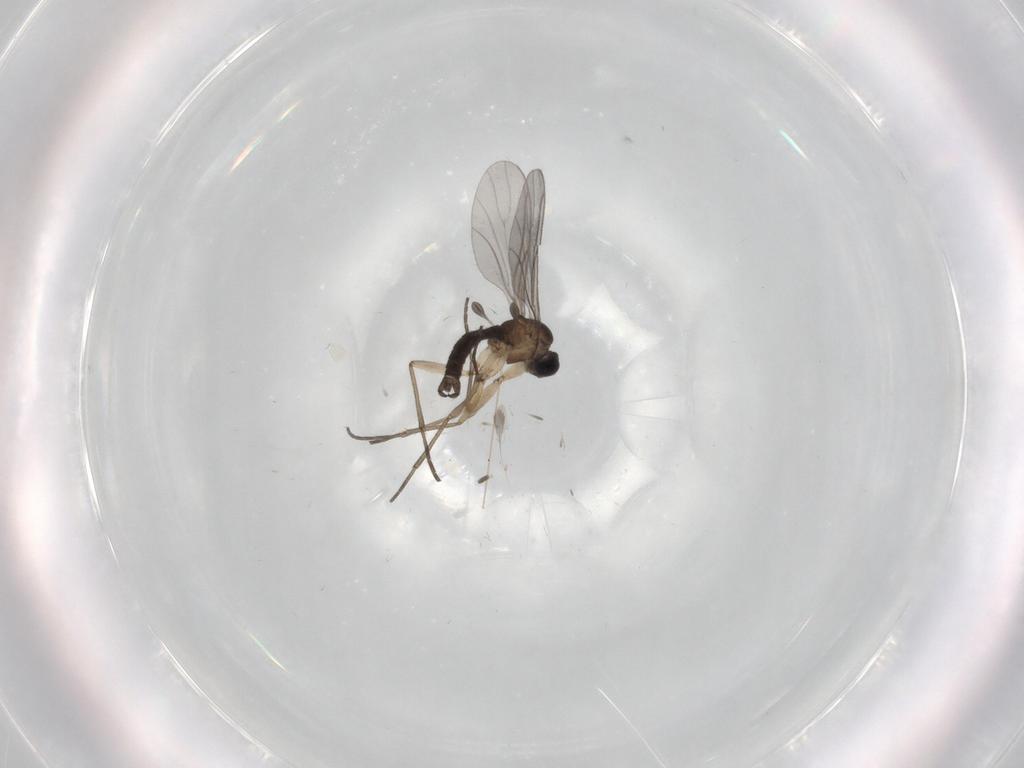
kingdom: Animalia
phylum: Arthropoda
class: Insecta
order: Diptera
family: Sciaridae
